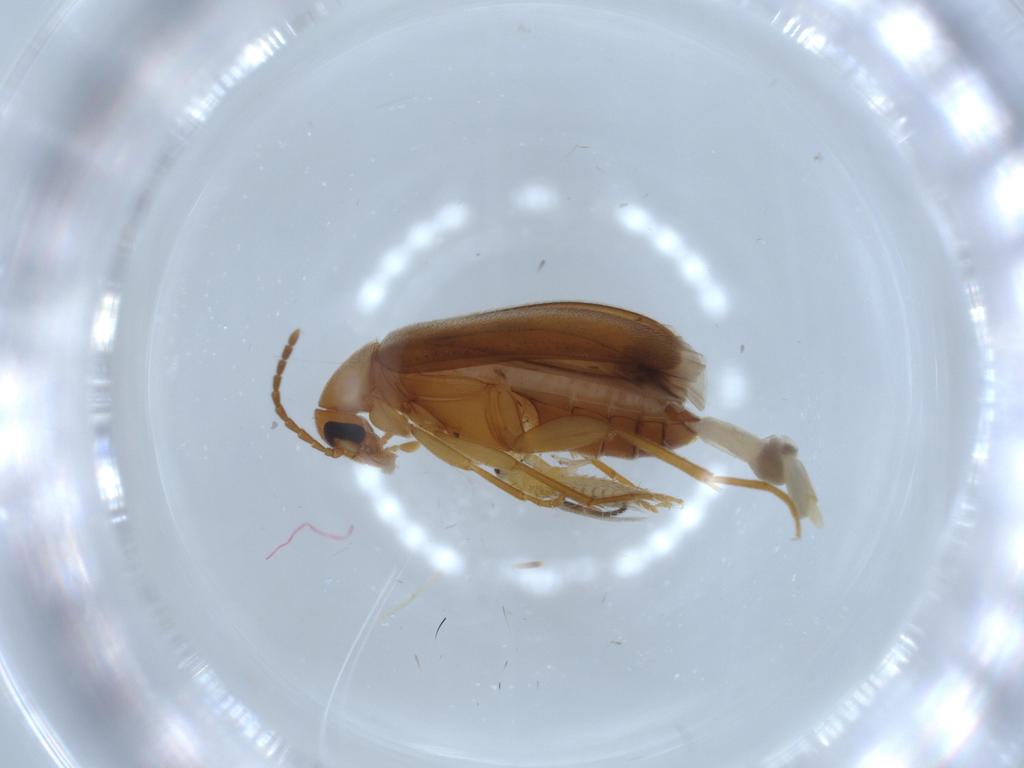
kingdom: Animalia
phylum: Arthropoda
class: Insecta
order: Coleoptera
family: Scraptiidae
